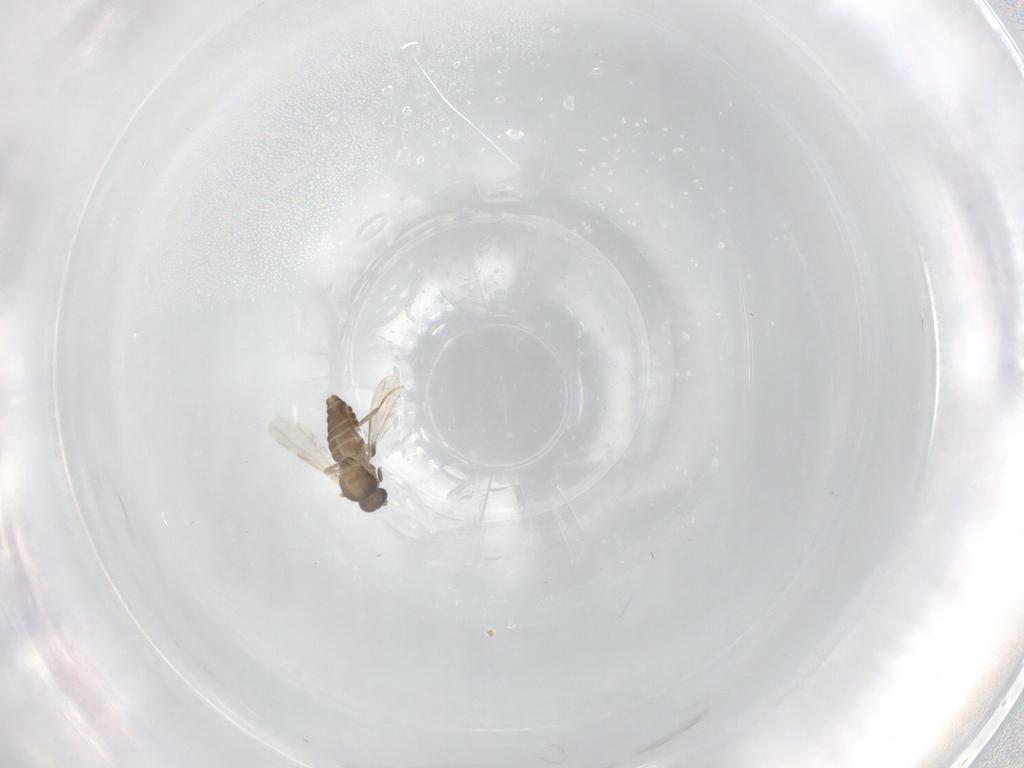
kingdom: Animalia
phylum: Arthropoda
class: Insecta
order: Diptera
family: Ceratopogonidae
